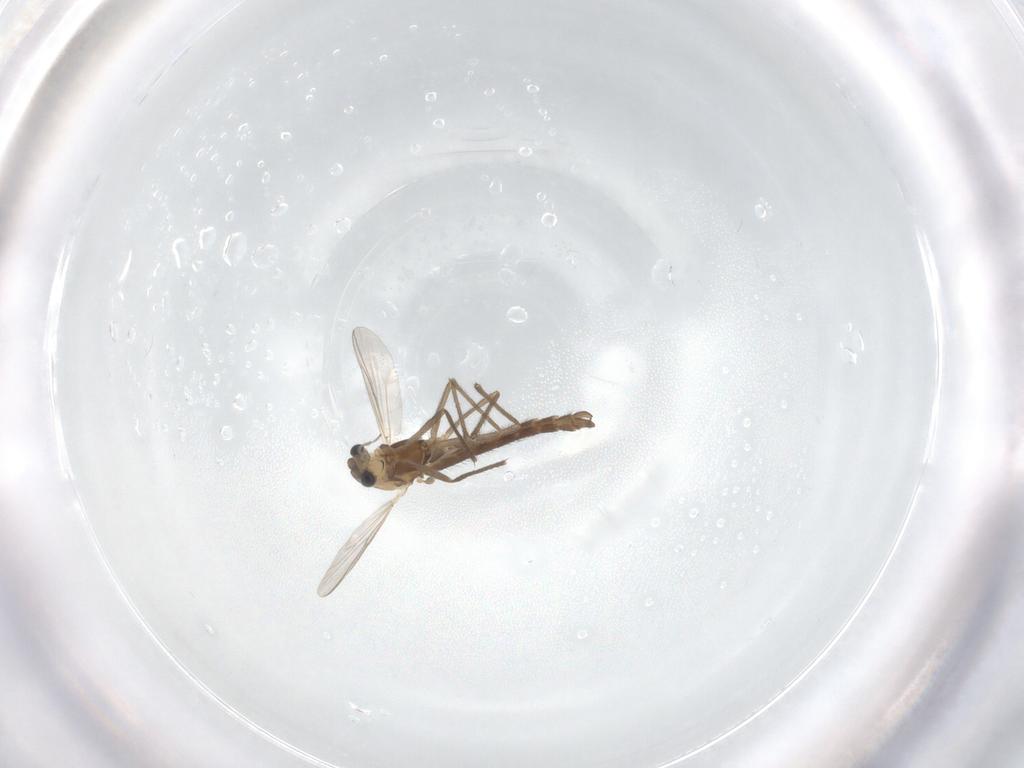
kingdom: Animalia
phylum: Arthropoda
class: Insecta
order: Diptera
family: Chironomidae
